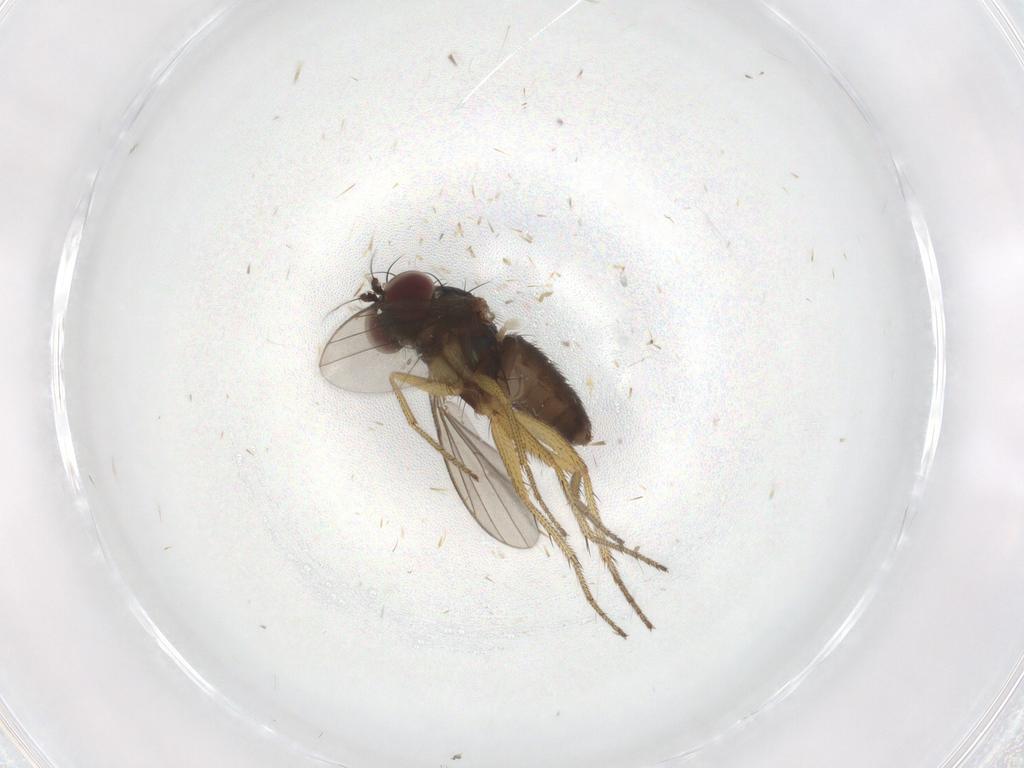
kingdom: Animalia
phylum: Arthropoda
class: Insecta
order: Diptera
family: Dolichopodidae
